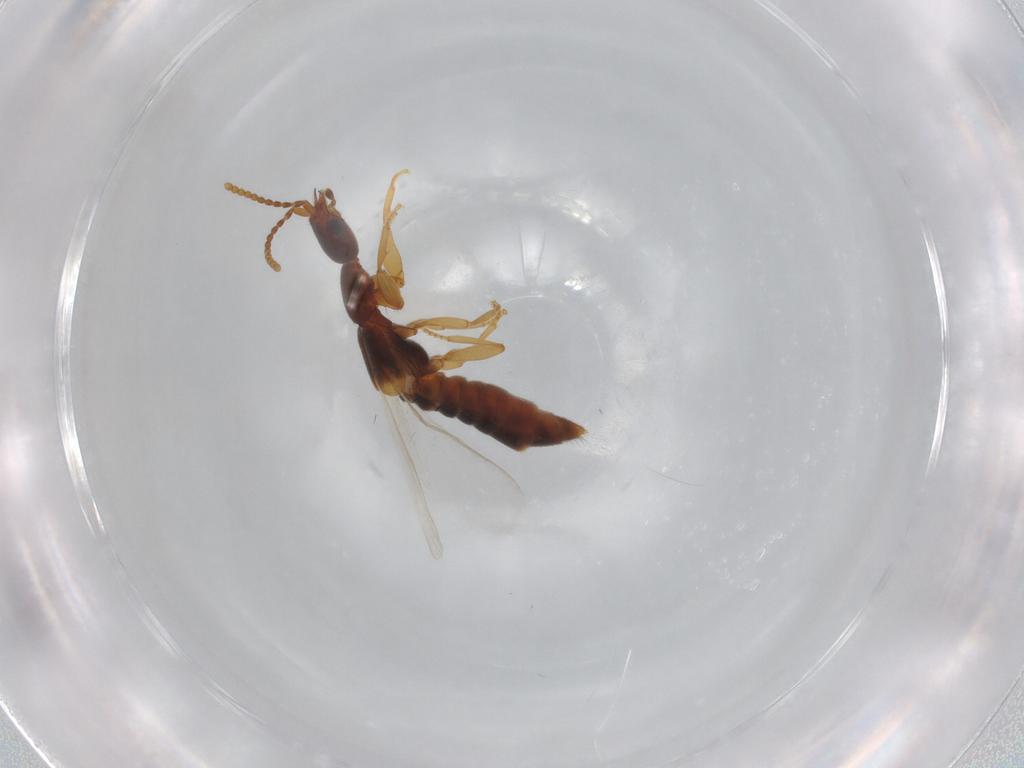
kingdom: Animalia
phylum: Arthropoda
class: Insecta
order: Coleoptera
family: Staphylinidae
